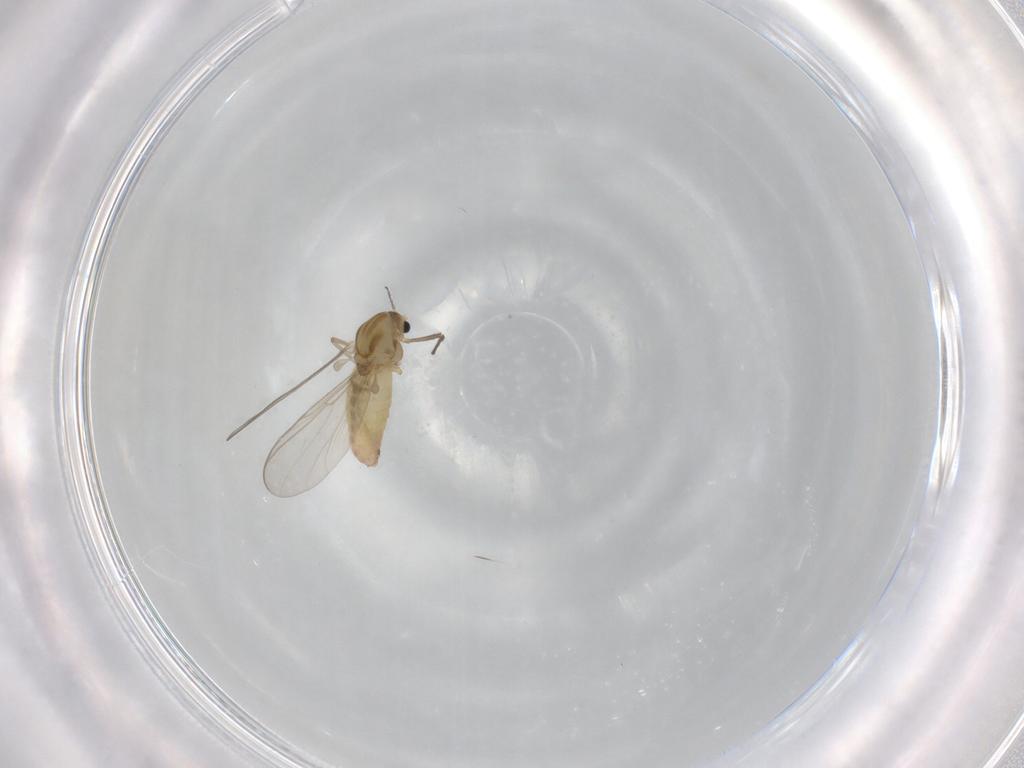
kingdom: Animalia
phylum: Arthropoda
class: Insecta
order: Diptera
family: Chironomidae
